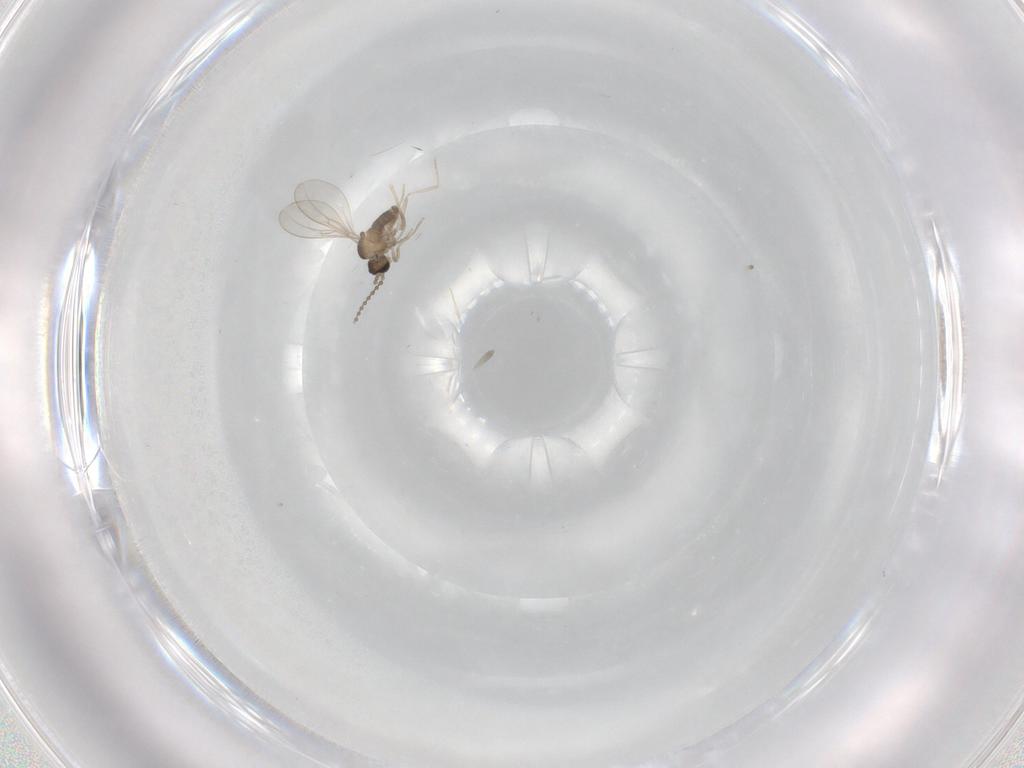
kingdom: Animalia
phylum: Arthropoda
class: Insecta
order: Diptera
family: Cecidomyiidae
